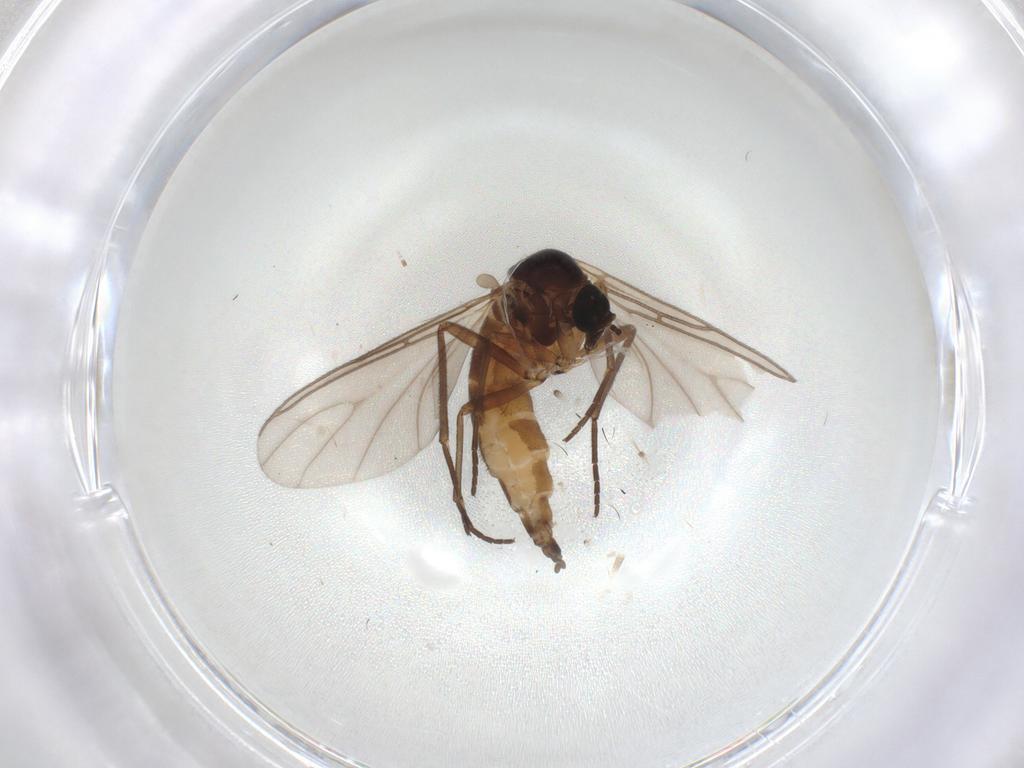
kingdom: Animalia
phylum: Arthropoda
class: Insecta
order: Diptera
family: Sciaridae
